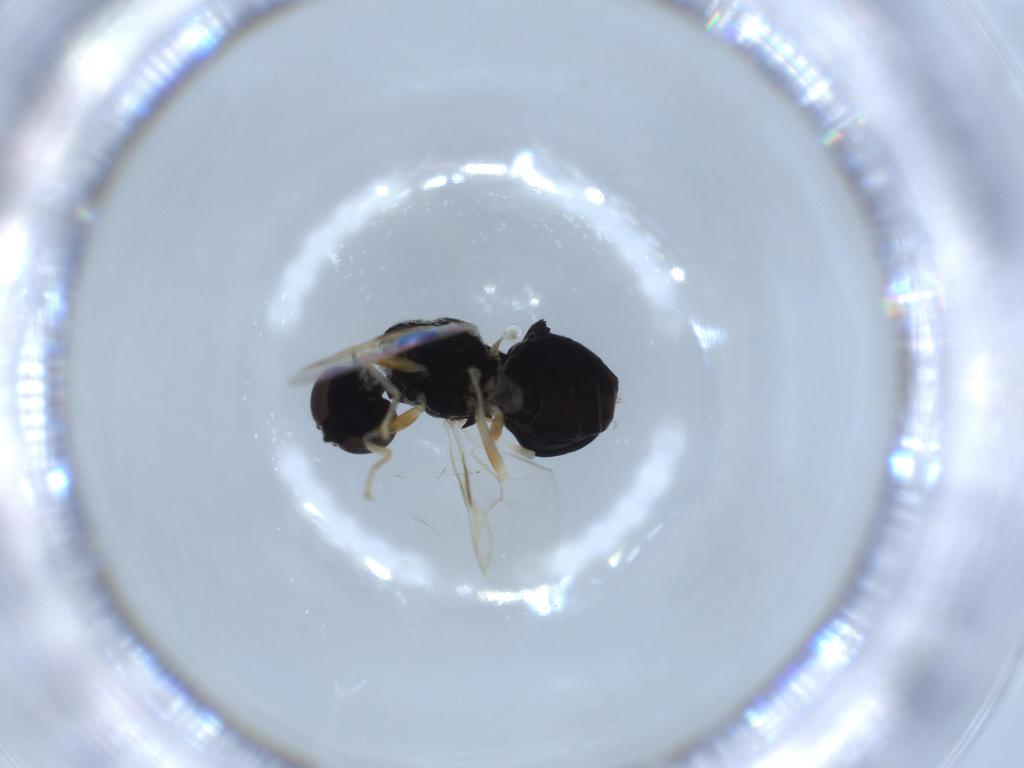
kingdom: Animalia
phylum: Arthropoda
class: Insecta
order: Diptera
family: Stratiomyidae
